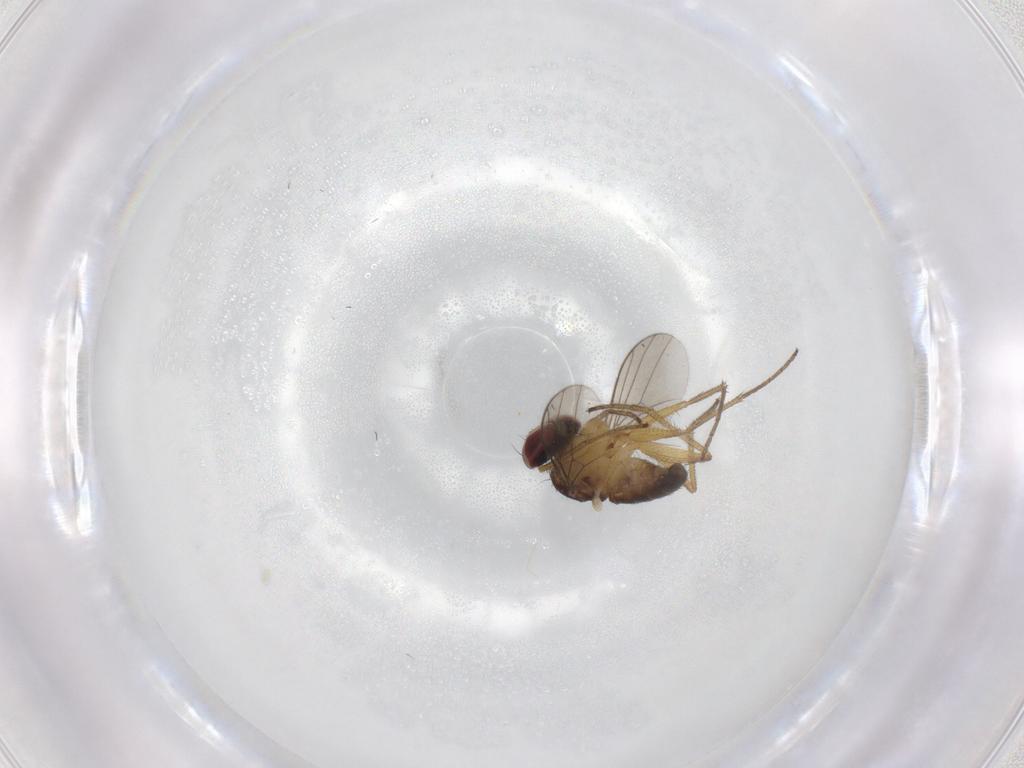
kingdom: Animalia
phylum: Arthropoda
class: Insecta
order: Diptera
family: Dolichopodidae
